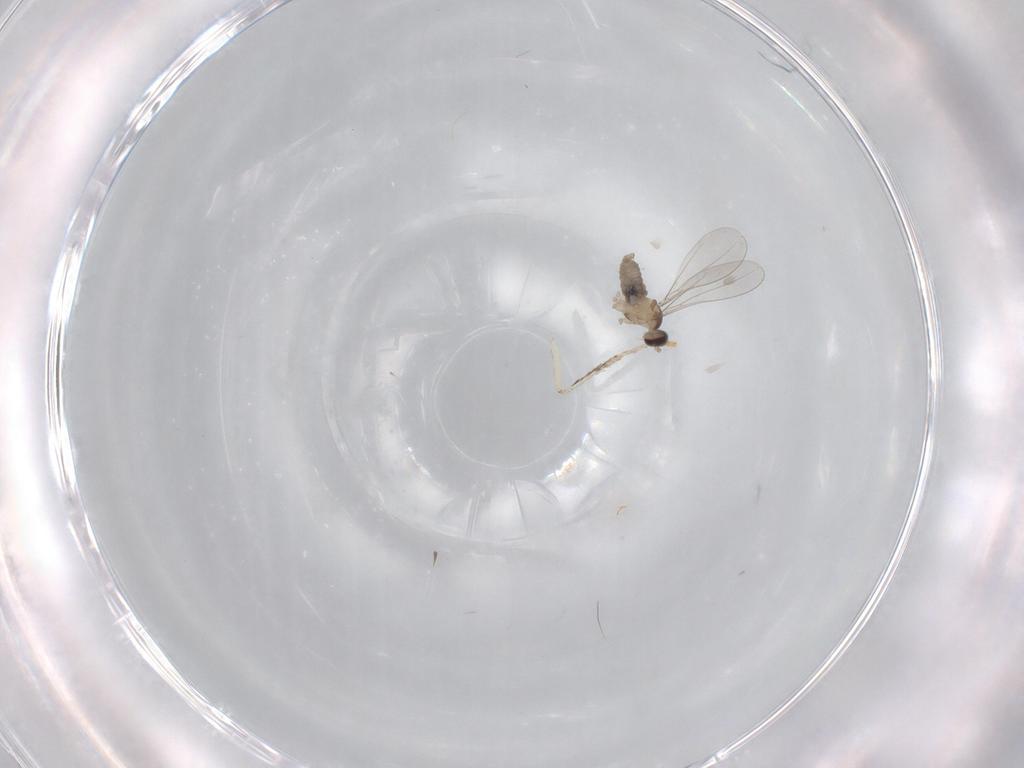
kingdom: Animalia
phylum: Arthropoda
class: Insecta
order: Diptera
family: Cecidomyiidae
